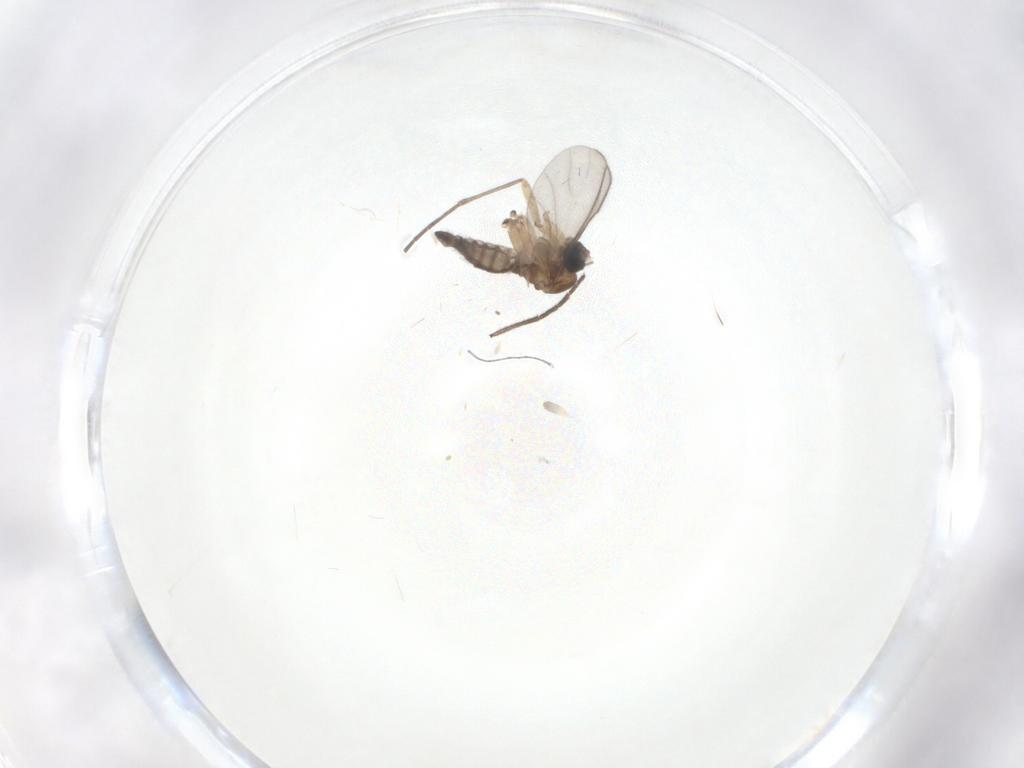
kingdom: Animalia
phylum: Arthropoda
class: Insecta
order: Diptera
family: Sciaridae
